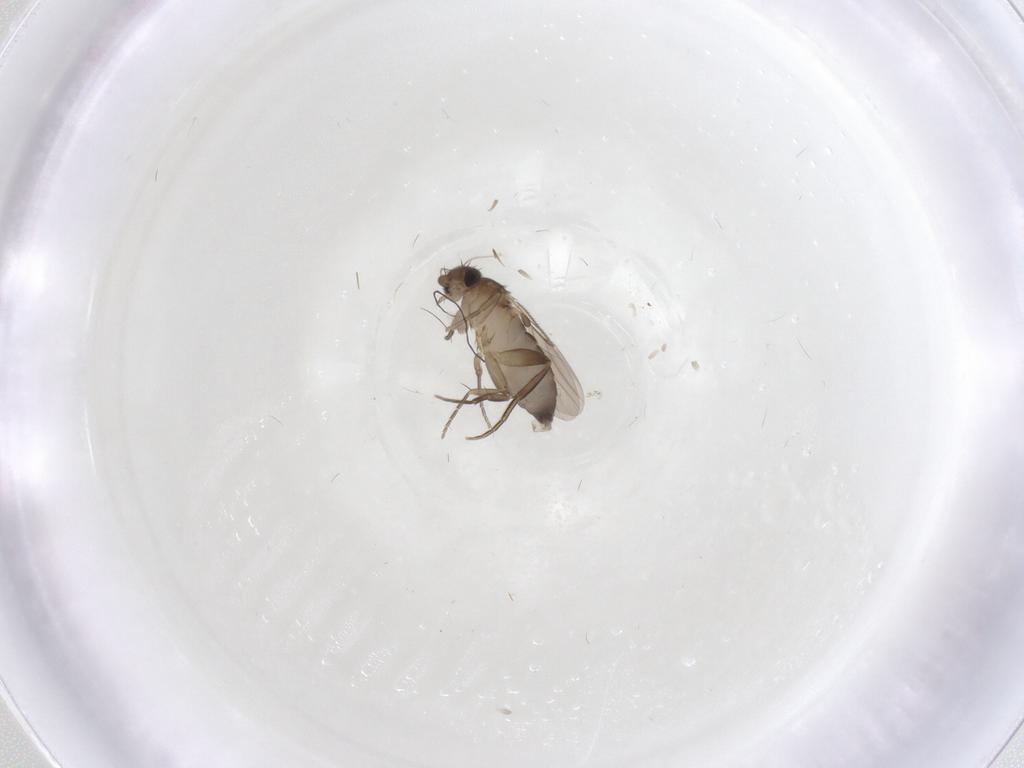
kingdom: Animalia
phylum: Arthropoda
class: Insecta
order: Diptera
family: Phoridae
